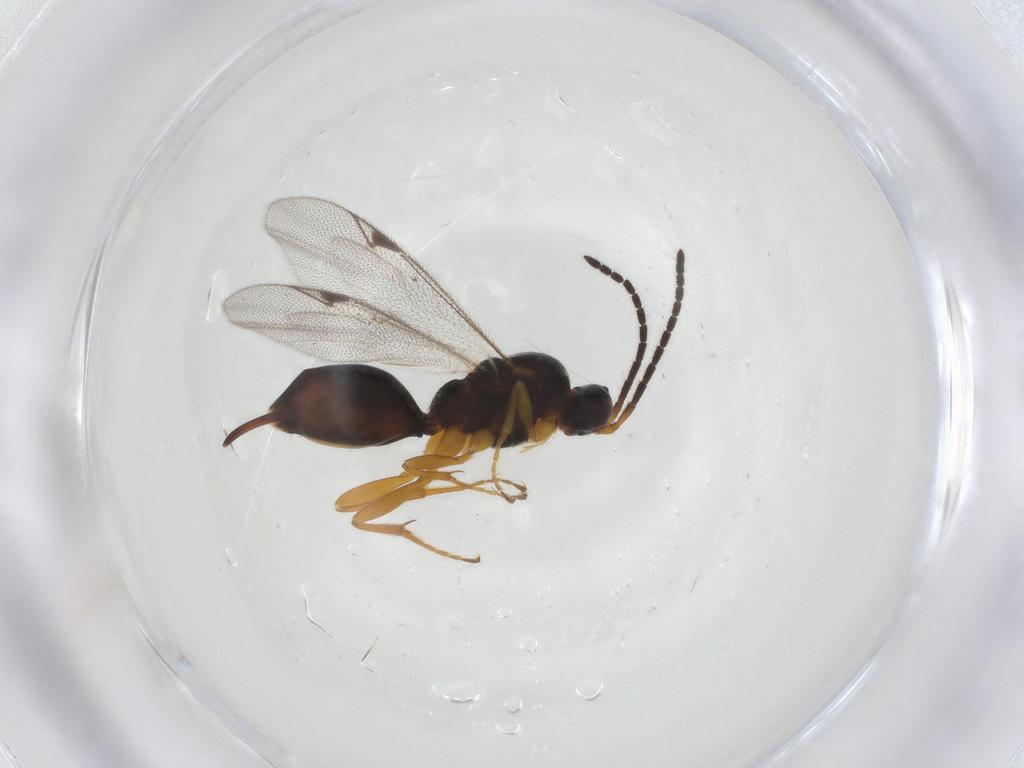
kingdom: Animalia
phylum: Arthropoda
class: Insecta
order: Hymenoptera
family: Proctotrupidae
